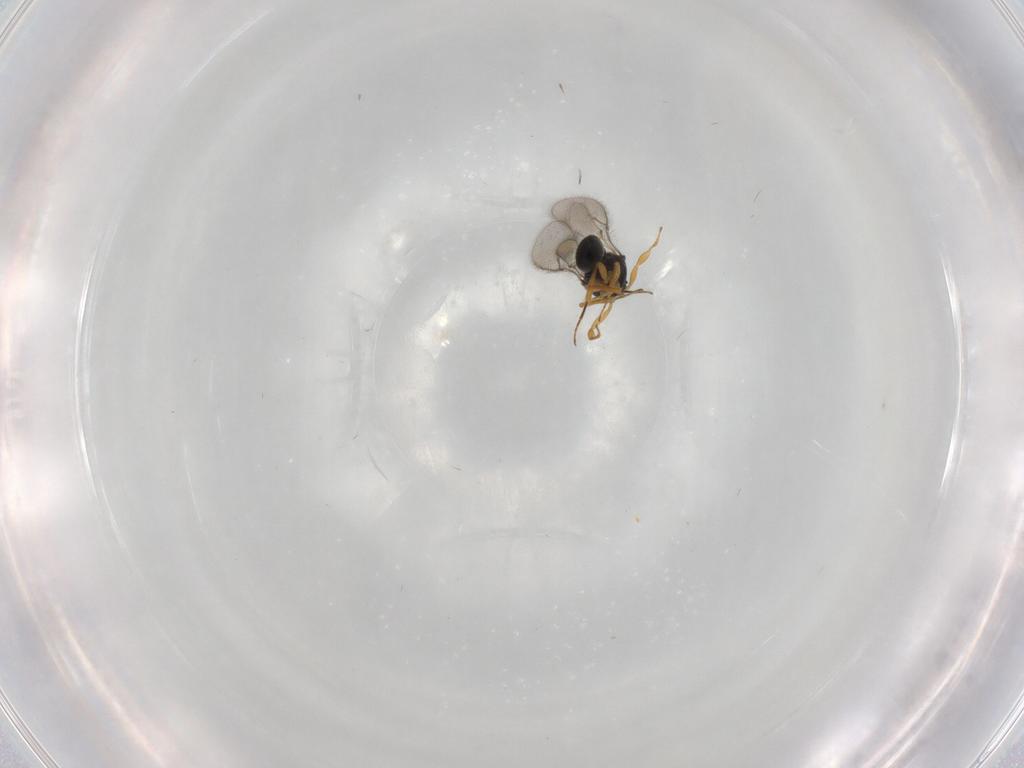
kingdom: Animalia
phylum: Arthropoda
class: Insecta
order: Hymenoptera
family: Scelionidae
